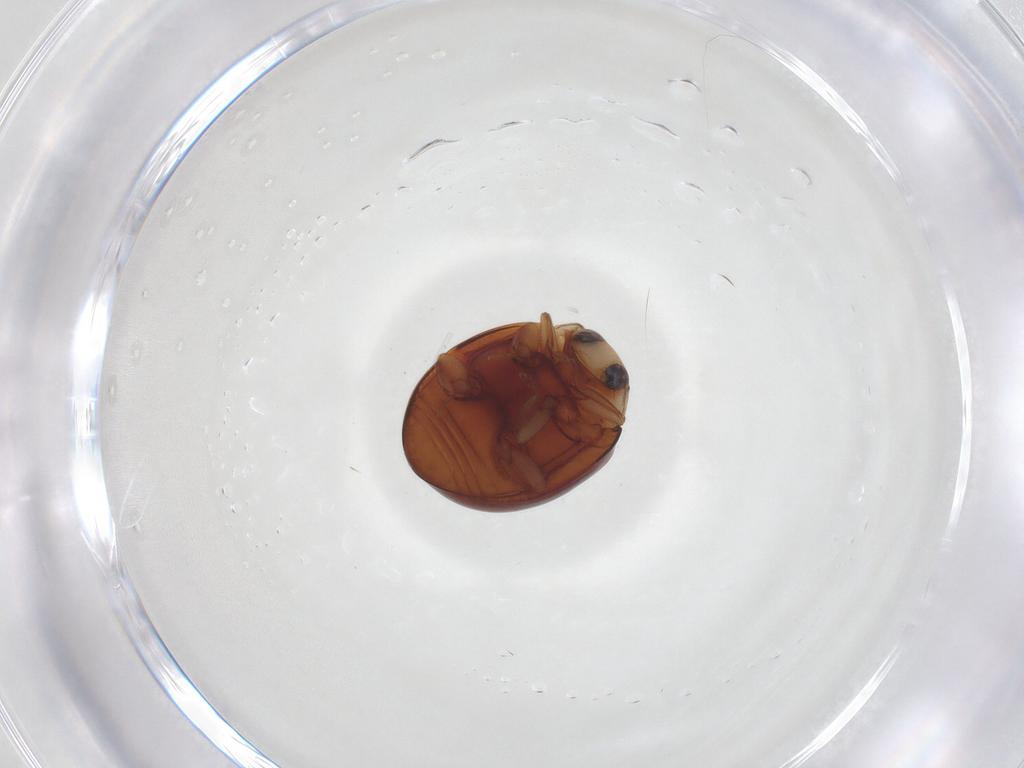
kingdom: Animalia
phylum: Arthropoda
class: Insecta
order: Coleoptera
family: Coccinellidae
